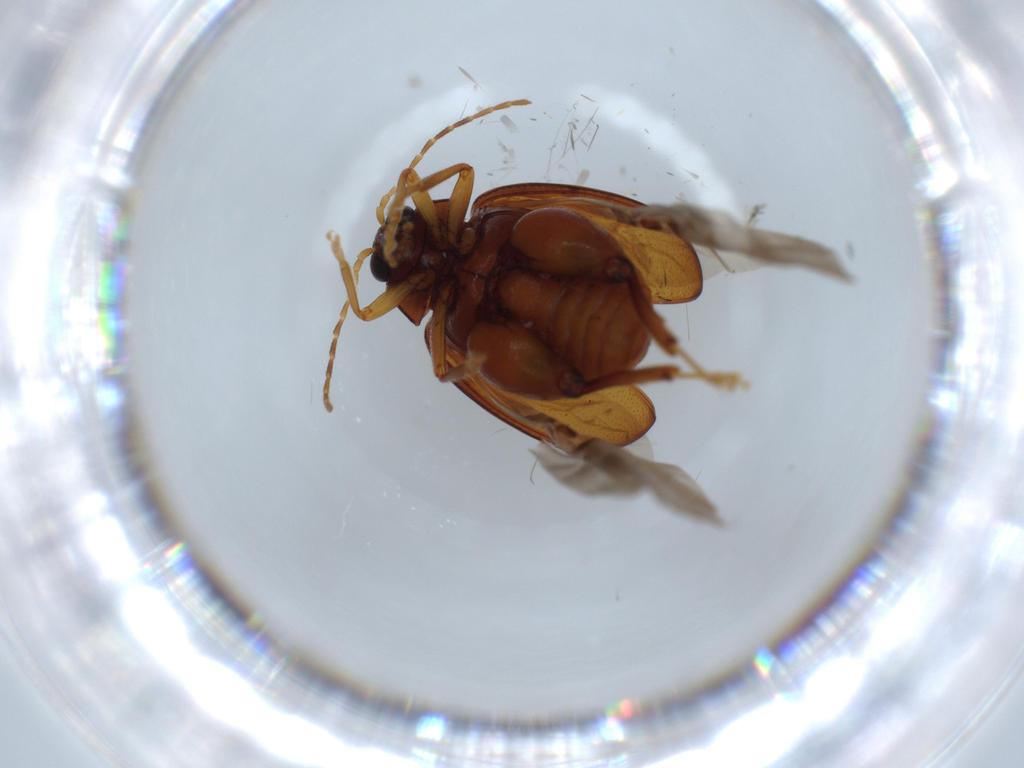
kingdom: Animalia
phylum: Arthropoda
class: Insecta
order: Coleoptera
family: Chrysomelidae
